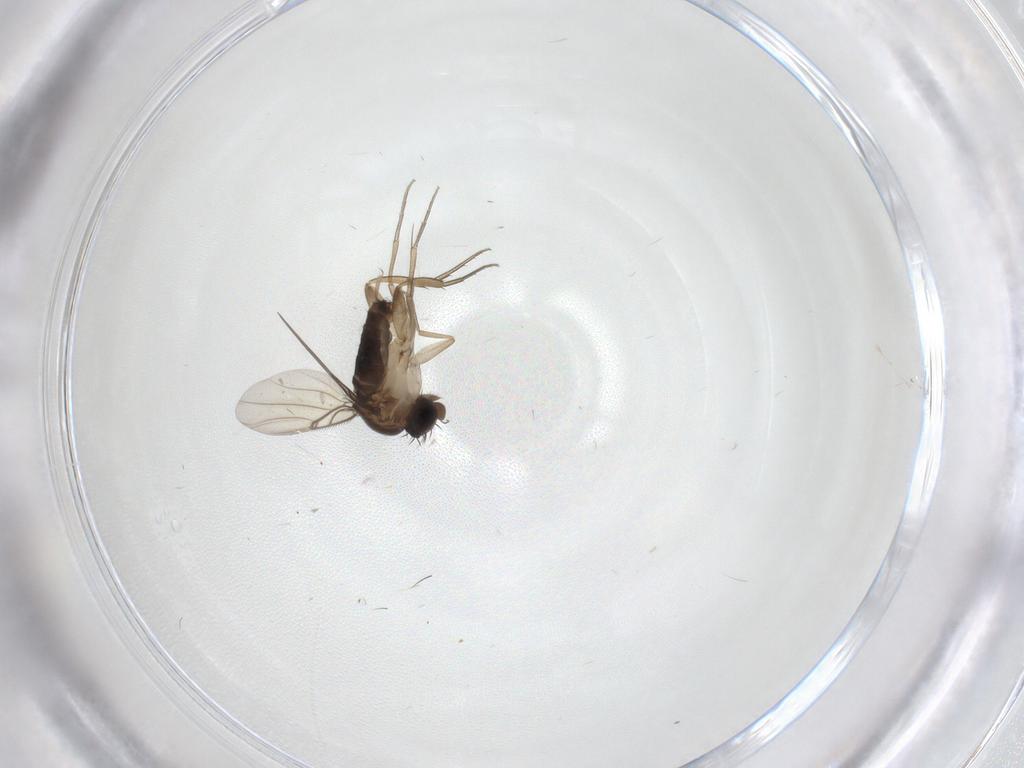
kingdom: Animalia
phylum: Arthropoda
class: Insecta
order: Diptera
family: Phoridae
